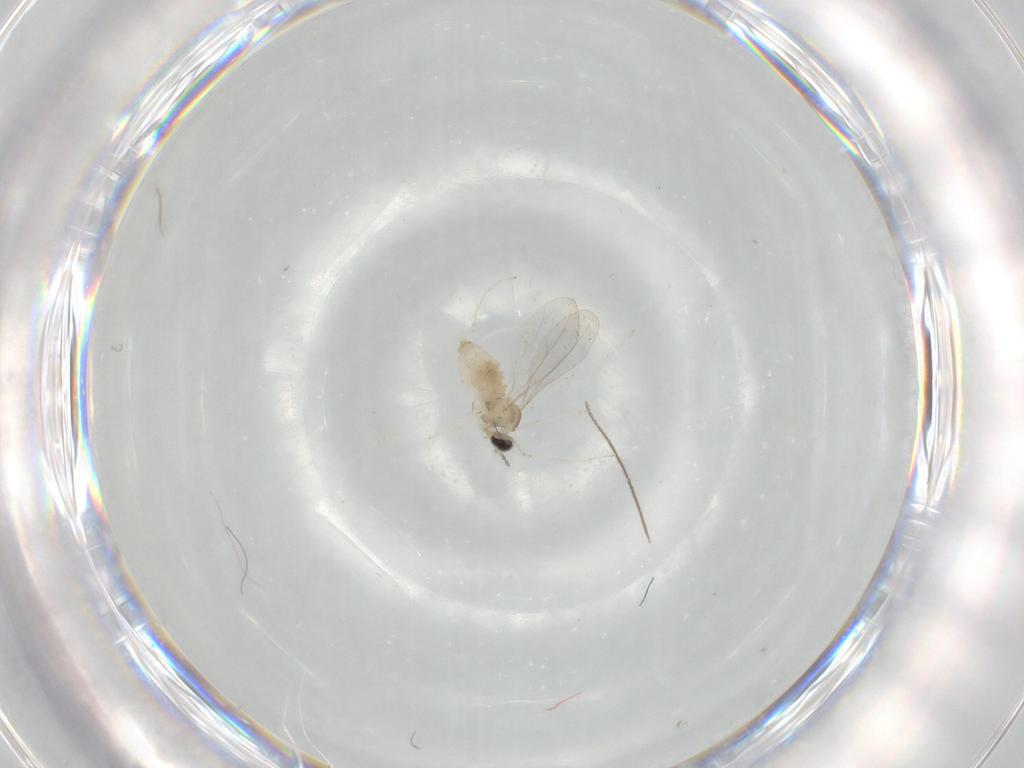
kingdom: Animalia
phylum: Arthropoda
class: Insecta
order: Diptera
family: Cecidomyiidae
